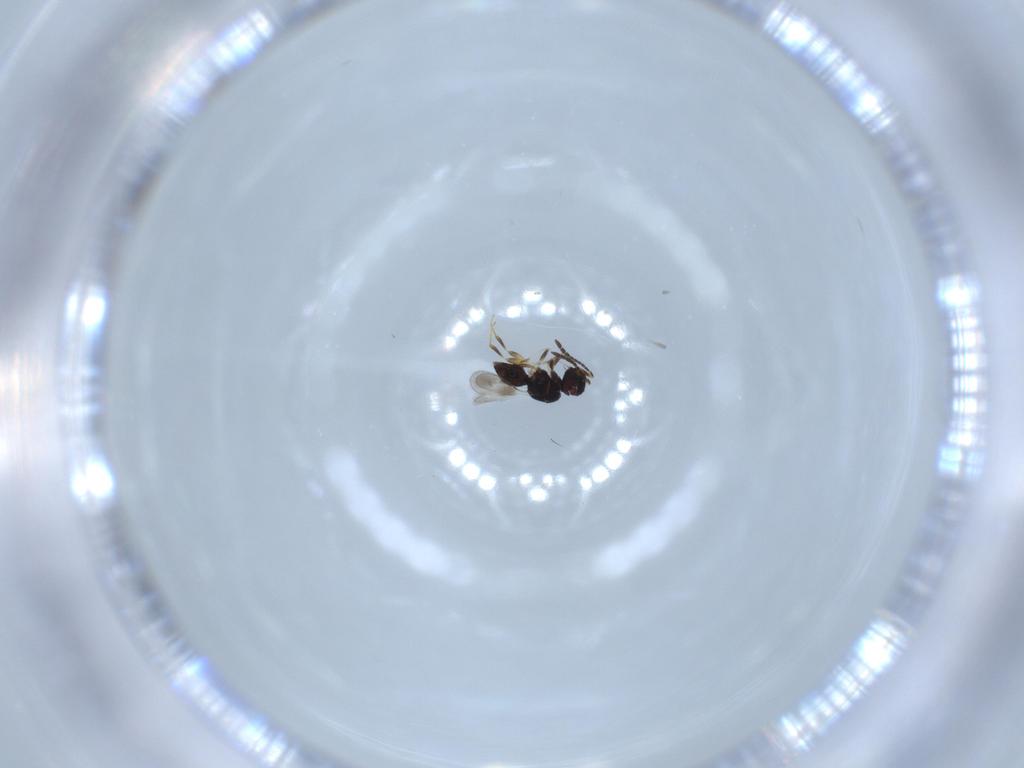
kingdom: Animalia
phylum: Arthropoda
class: Insecta
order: Hymenoptera
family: Scelionidae
